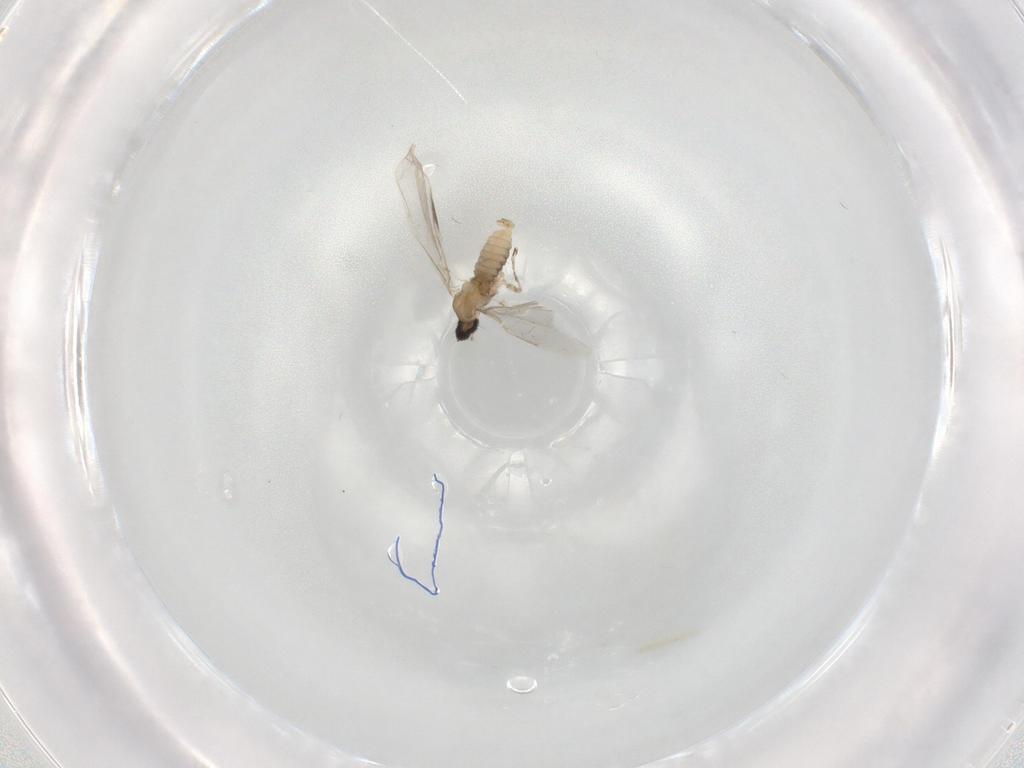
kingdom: Animalia
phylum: Arthropoda
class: Insecta
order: Diptera
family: Cecidomyiidae
